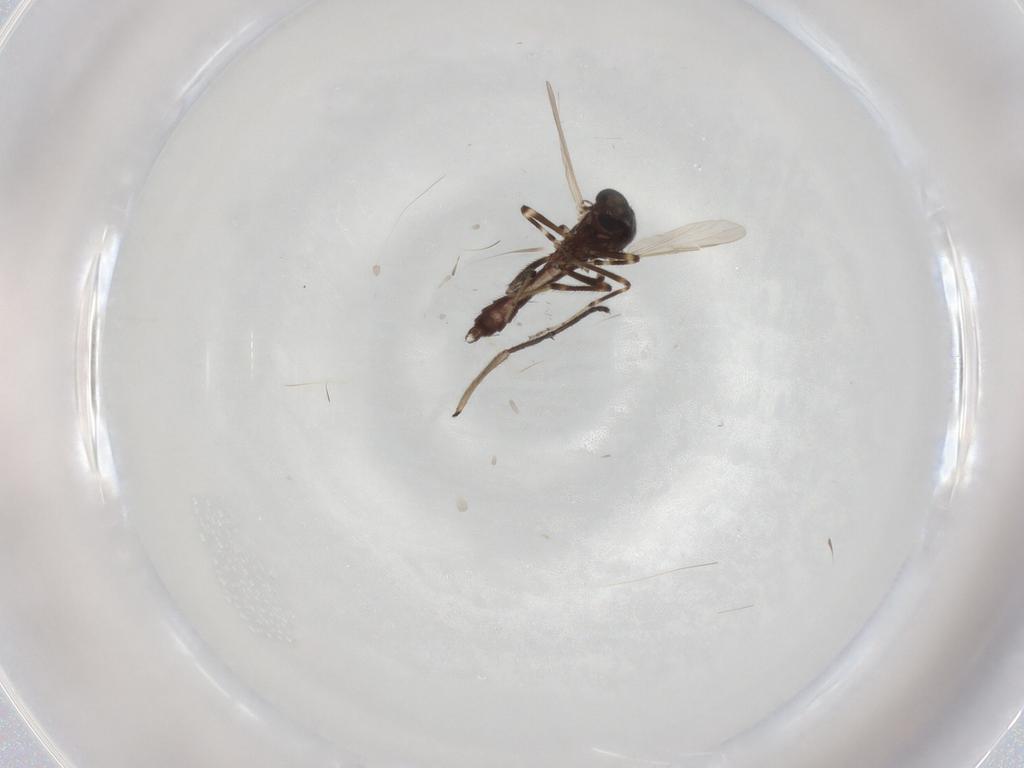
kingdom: Animalia
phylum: Arthropoda
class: Insecta
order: Diptera
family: Sciaridae
